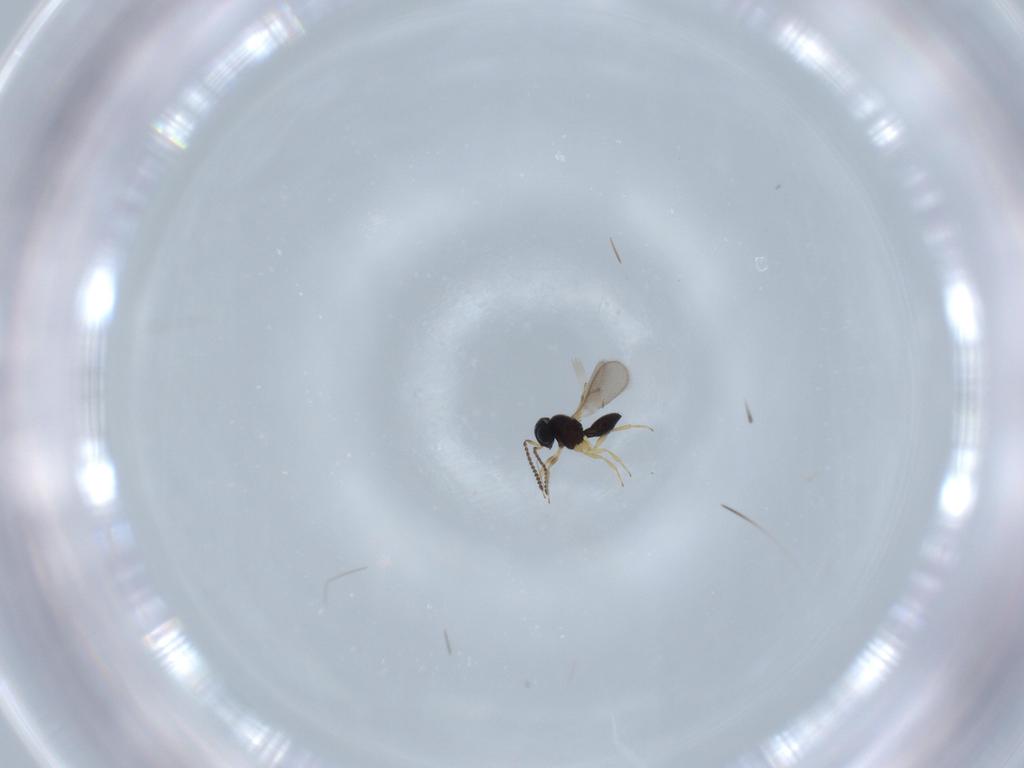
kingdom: Animalia
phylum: Arthropoda
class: Insecta
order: Hymenoptera
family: Scelionidae
